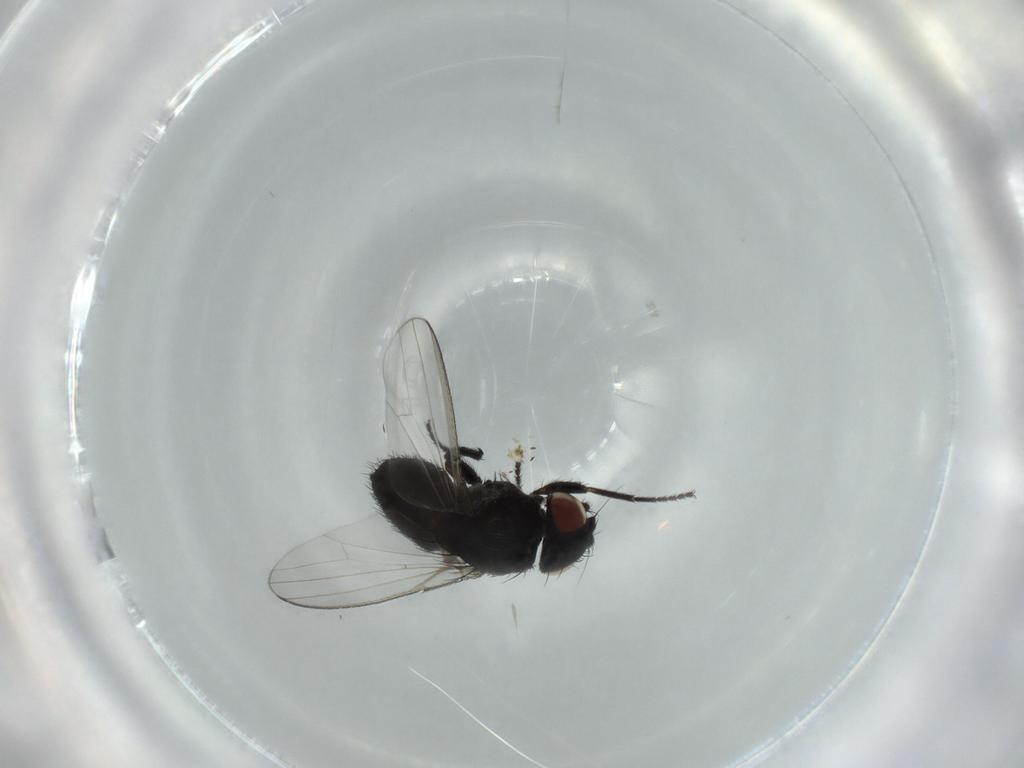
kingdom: Animalia
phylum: Arthropoda
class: Insecta
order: Diptera
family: Milichiidae
